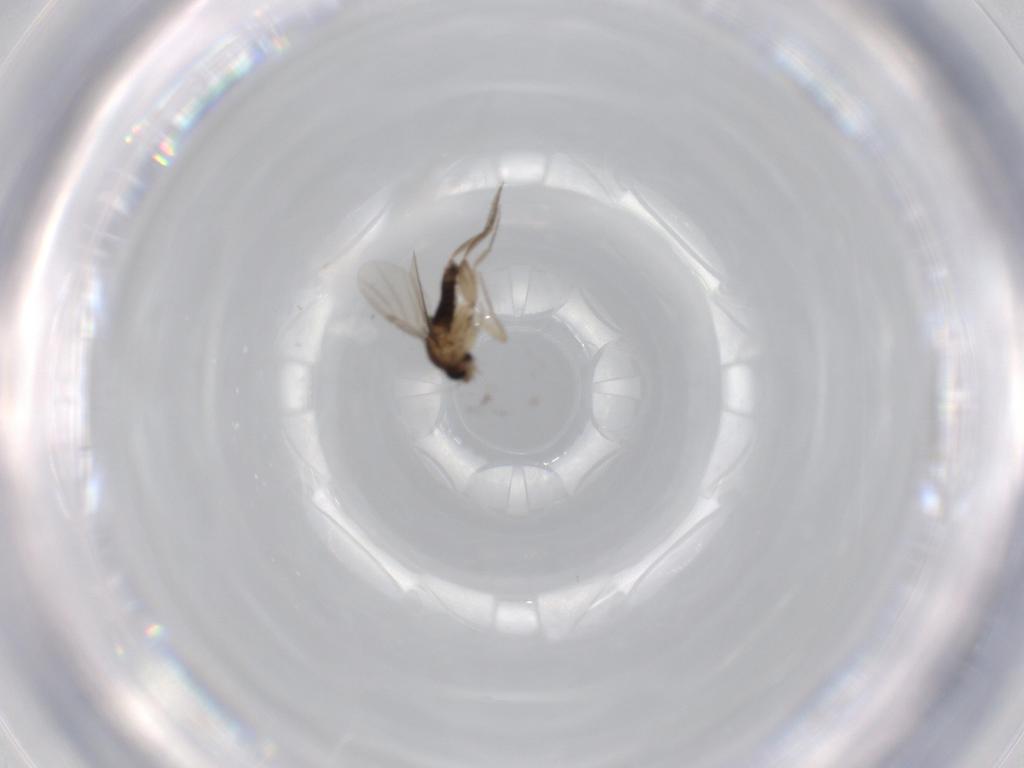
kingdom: Animalia
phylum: Arthropoda
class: Insecta
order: Diptera
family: Phoridae
